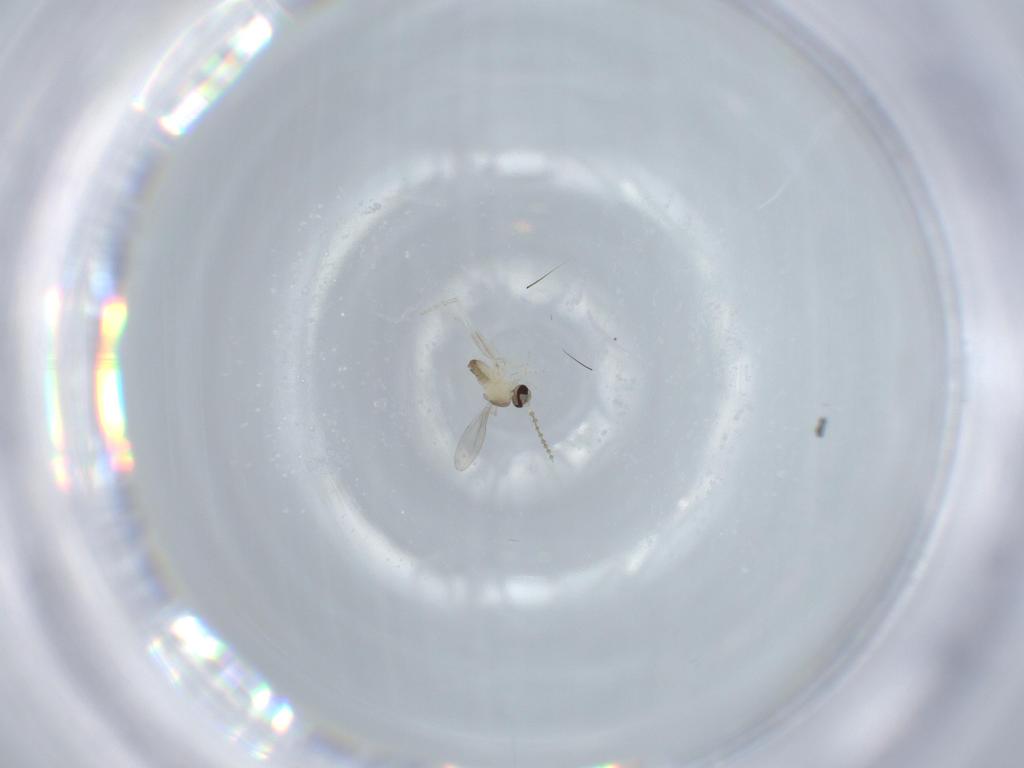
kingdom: Animalia
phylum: Arthropoda
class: Insecta
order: Diptera
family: Cecidomyiidae
